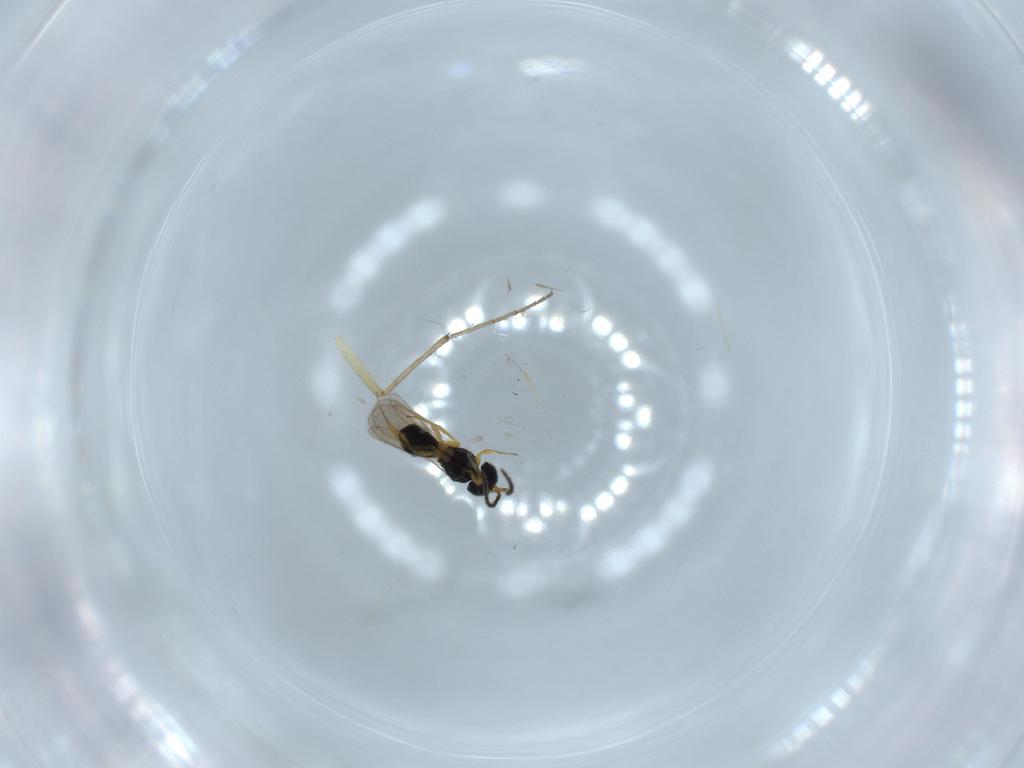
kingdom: Animalia
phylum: Arthropoda
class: Insecta
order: Hymenoptera
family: Scelionidae
